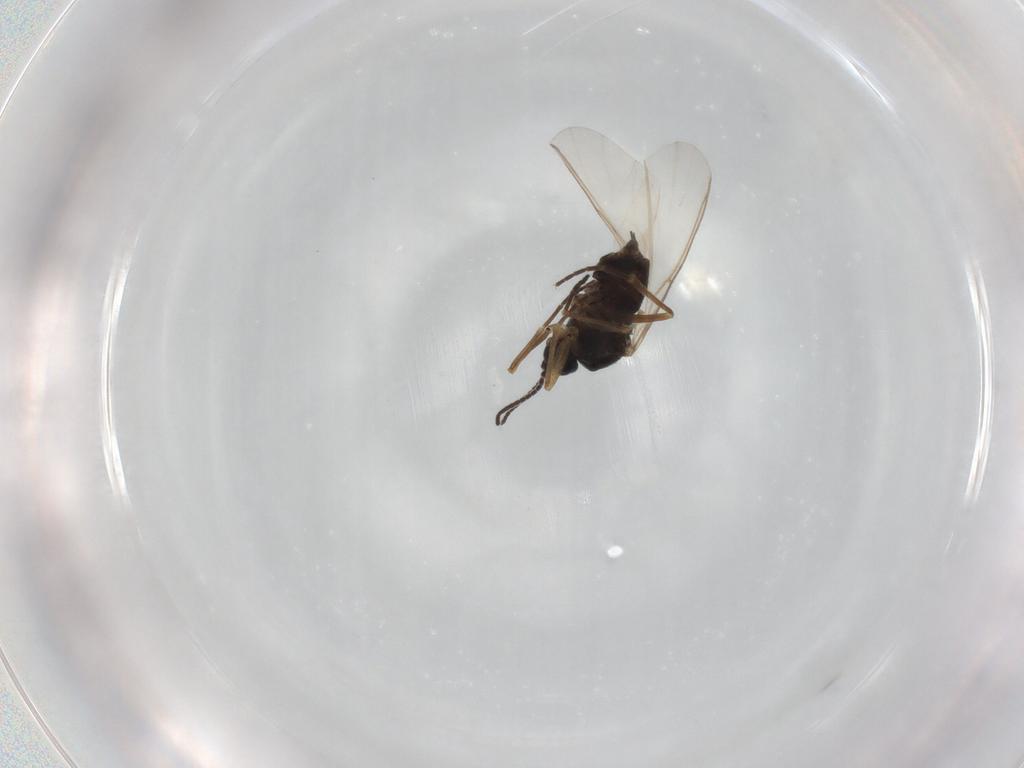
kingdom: Animalia
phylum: Arthropoda
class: Insecta
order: Diptera
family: Sciaridae
